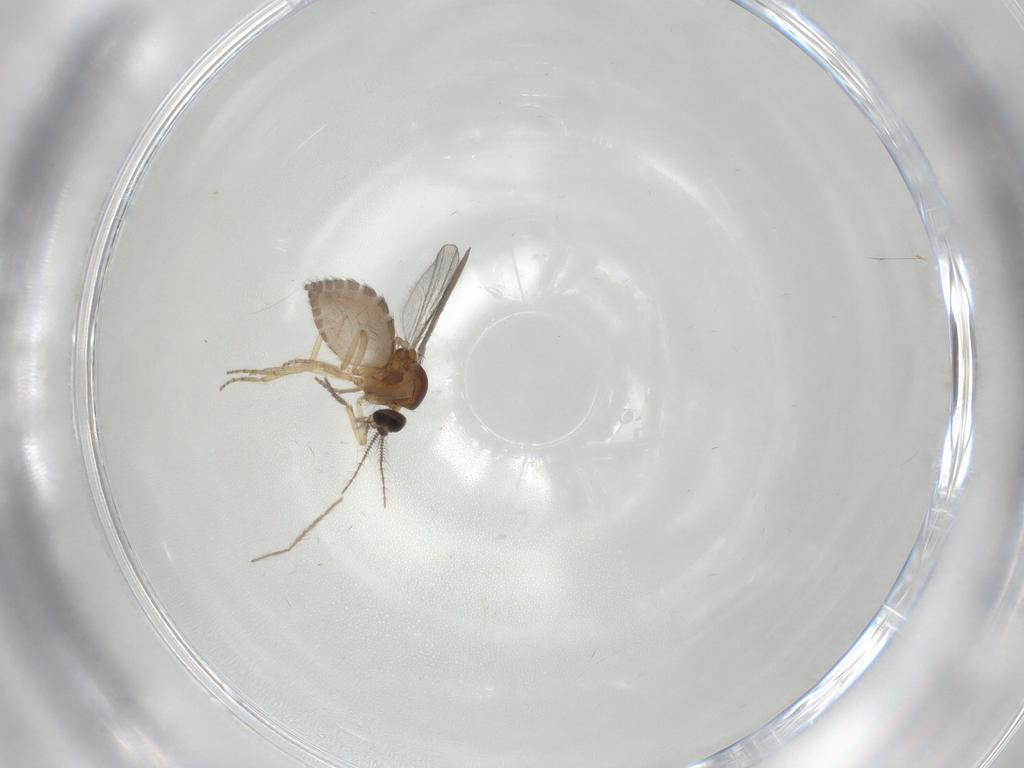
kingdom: Animalia
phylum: Arthropoda
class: Insecta
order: Diptera
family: Ceratopogonidae
